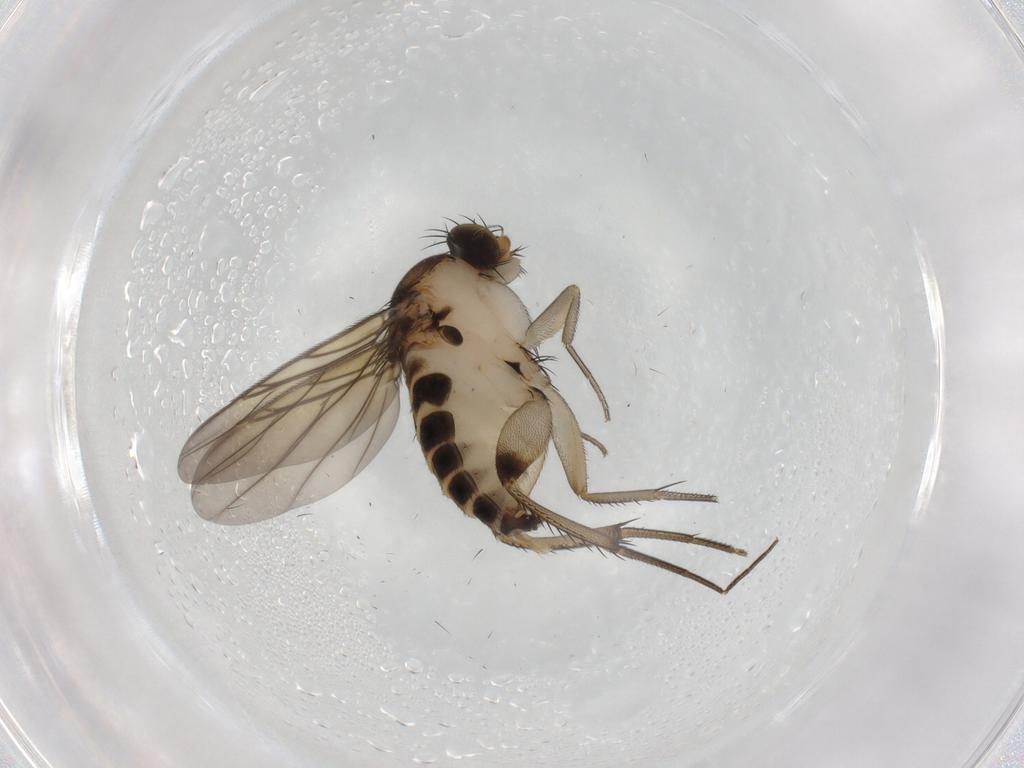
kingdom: Animalia
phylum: Arthropoda
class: Insecta
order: Diptera
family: Phoridae
